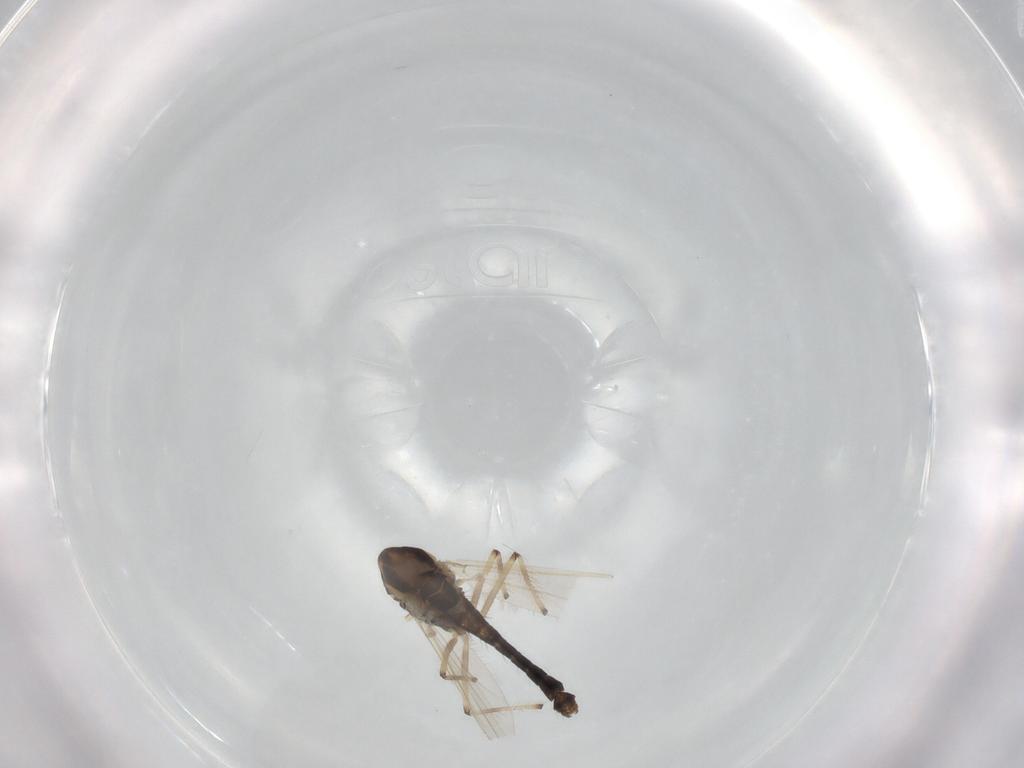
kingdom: Animalia
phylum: Arthropoda
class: Insecta
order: Diptera
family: Chironomidae
